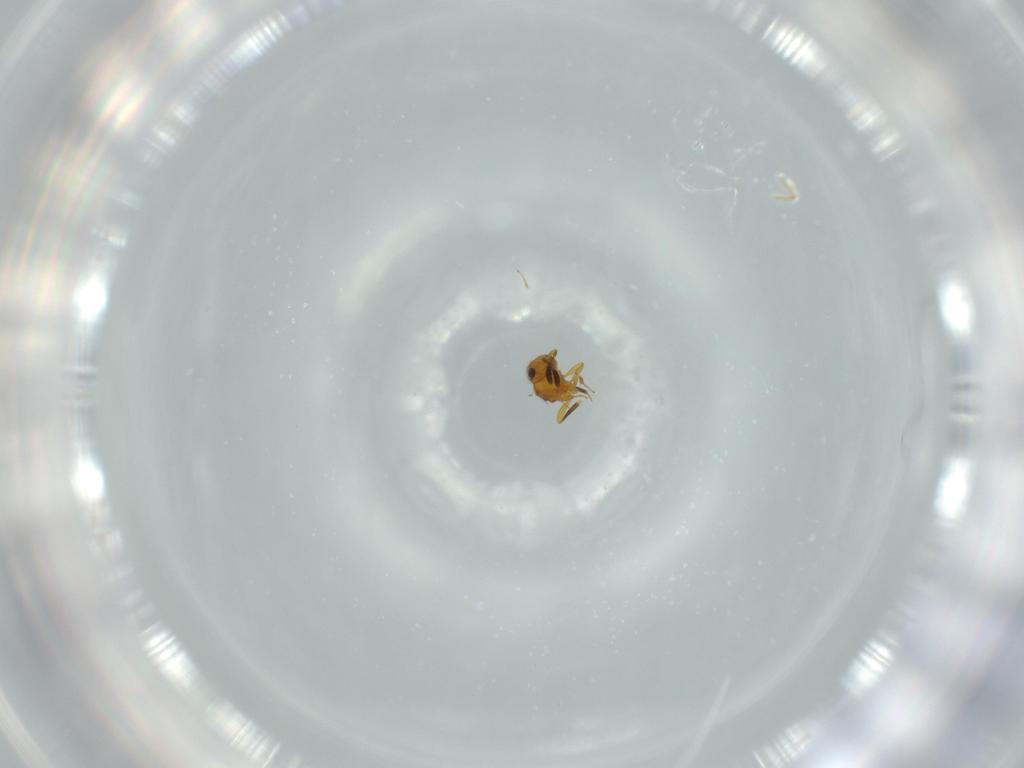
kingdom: Animalia
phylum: Arthropoda
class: Insecta
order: Hymenoptera
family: Scelionidae
